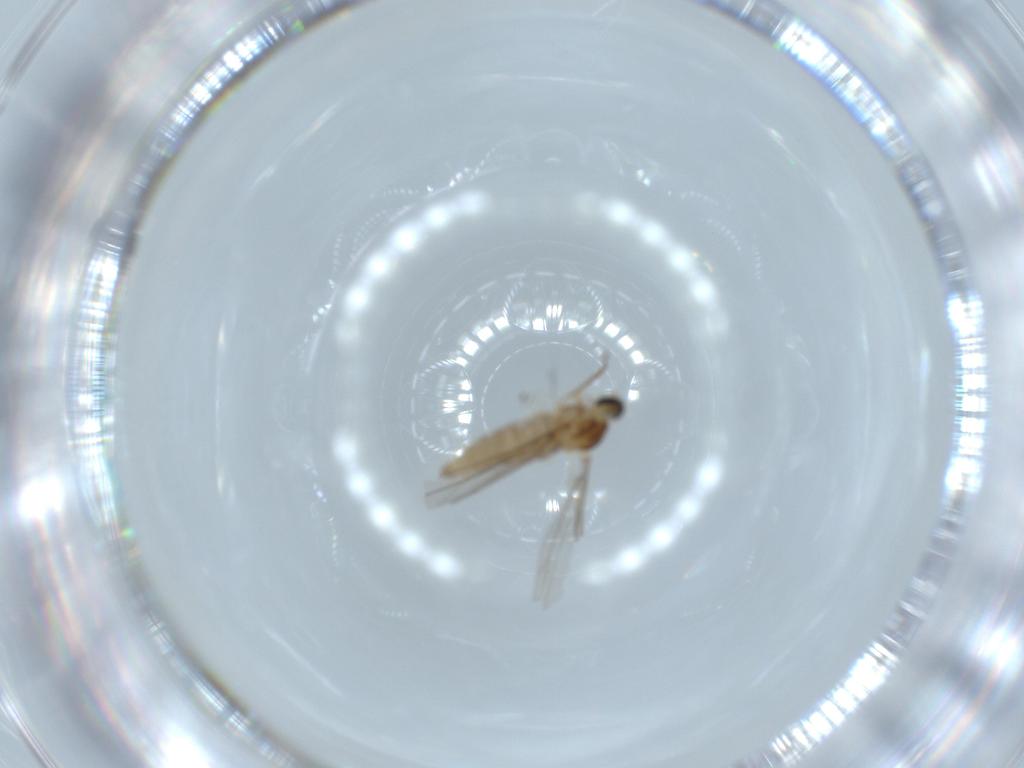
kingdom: Animalia
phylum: Arthropoda
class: Insecta
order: Diptera
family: Cecidomyiidae
